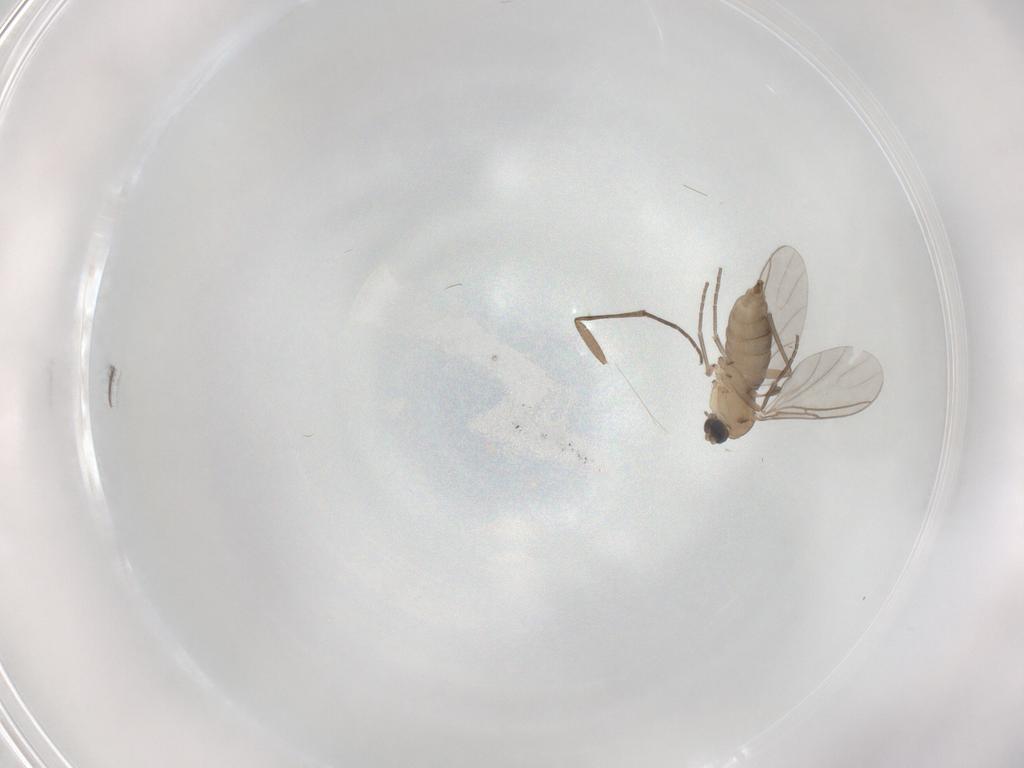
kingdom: Animalia
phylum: Arthropoda
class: Insecta
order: Diptera
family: Sciaridae
